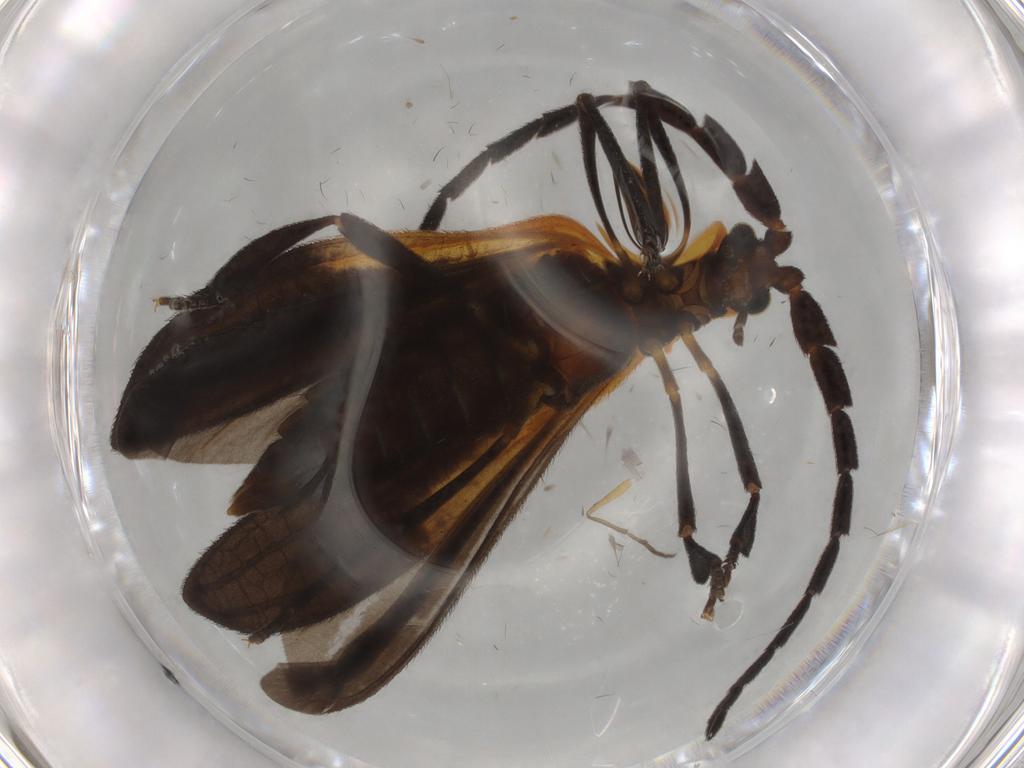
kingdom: Animalia
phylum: Arthropoda
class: Insecta
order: Coleoptera
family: Lycidae
